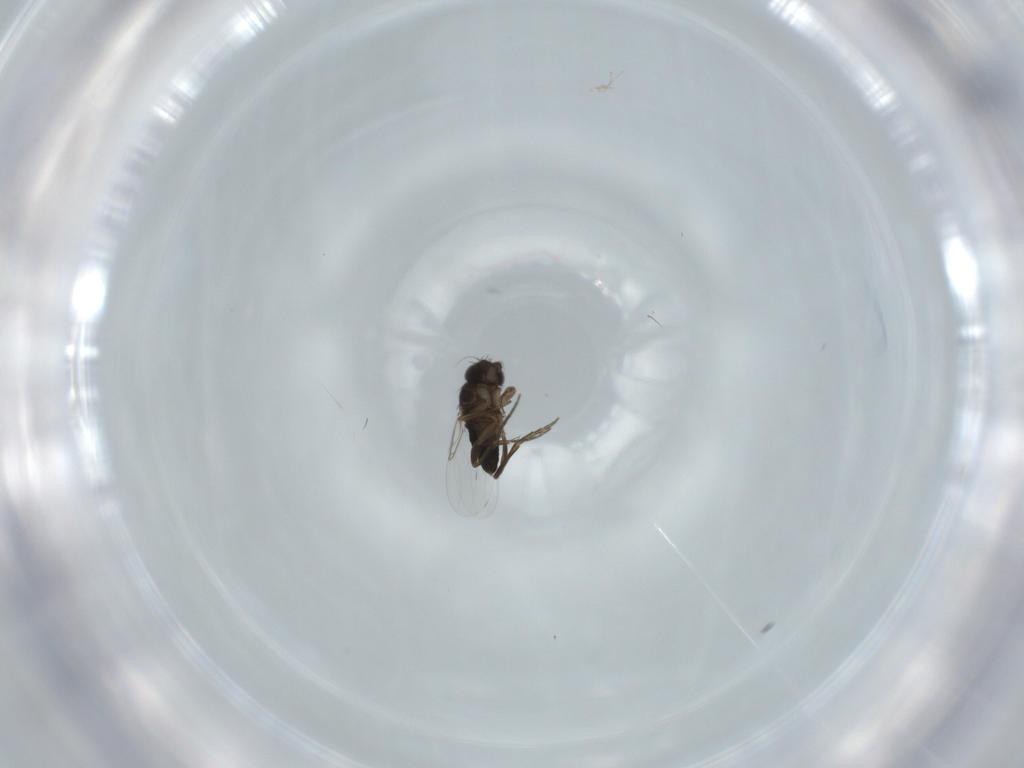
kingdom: Animalia
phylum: Arthropoda
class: Insecta
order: Diptera
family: Phoridae
